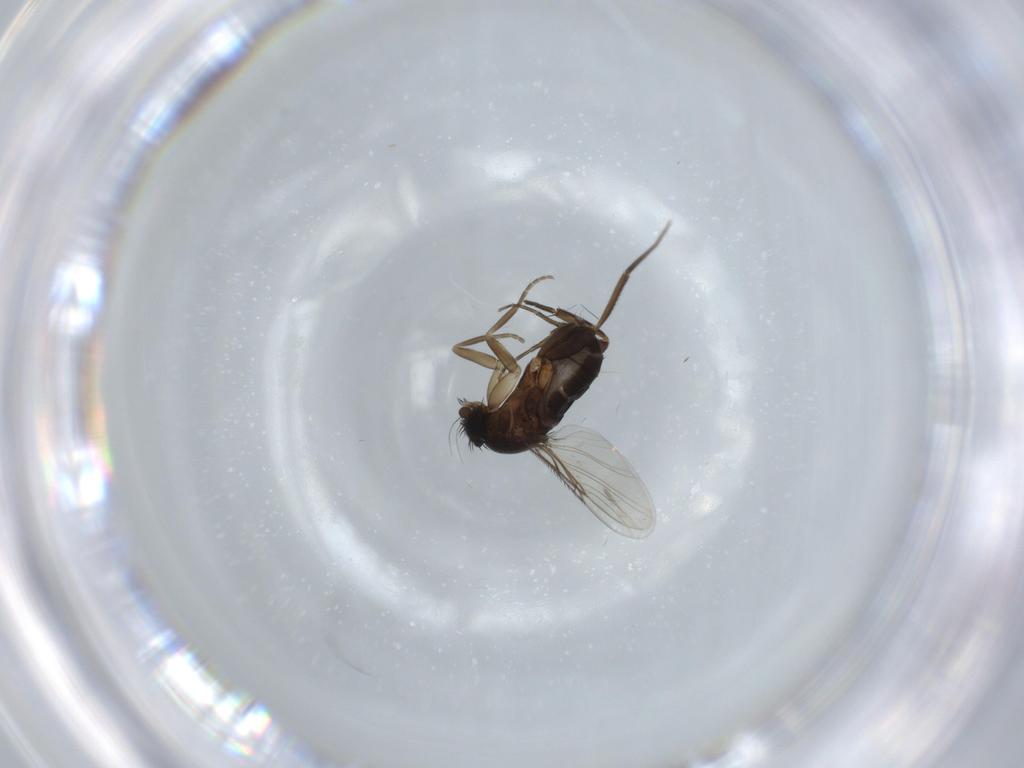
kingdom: Animalia
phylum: Arthropoda
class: Insecta
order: Diptera
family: Phoridae
